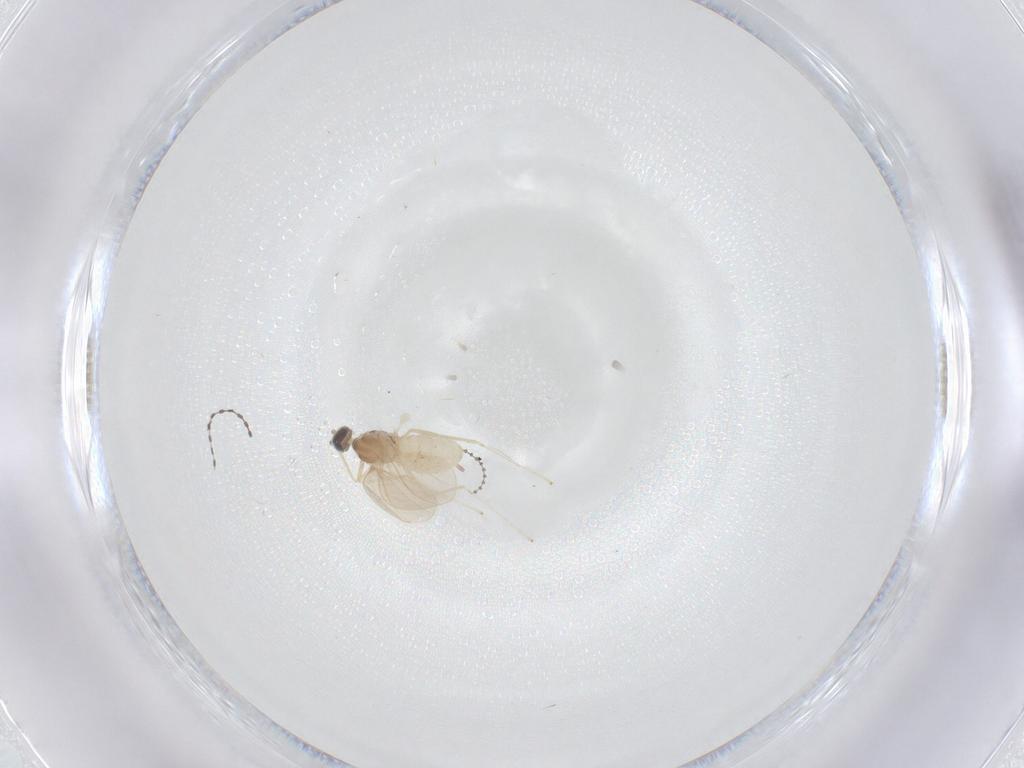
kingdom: Animalia
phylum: Arthropoda
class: Insecta
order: Diptera
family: Cecidomyiidae
